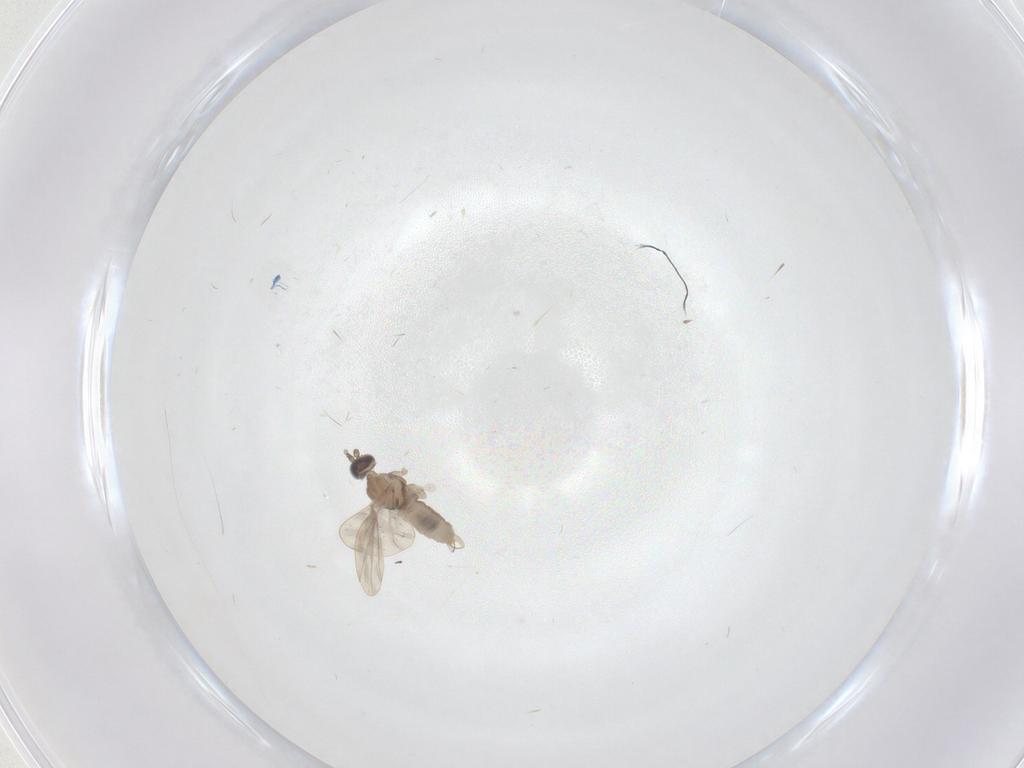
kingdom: Animalia
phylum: Arthropoda
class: Insecta
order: Diptera
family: Cecidomyiidae
